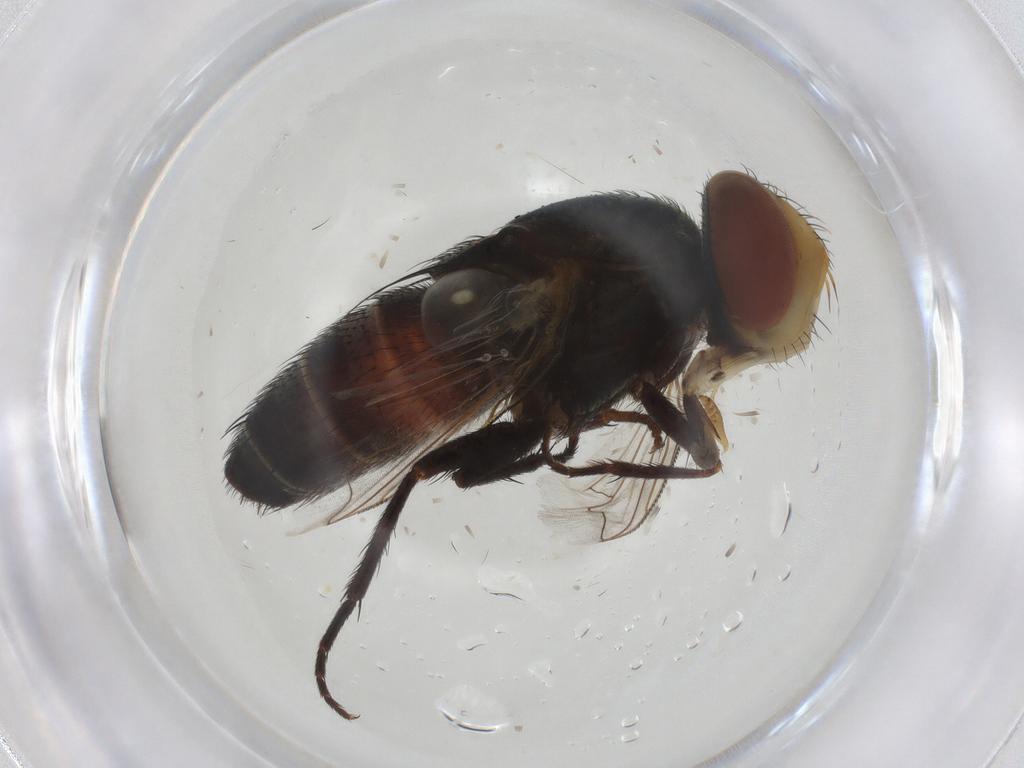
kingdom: Animalia
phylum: Arthropoda
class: Insecta
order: Diptera
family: Sarcophagidae
